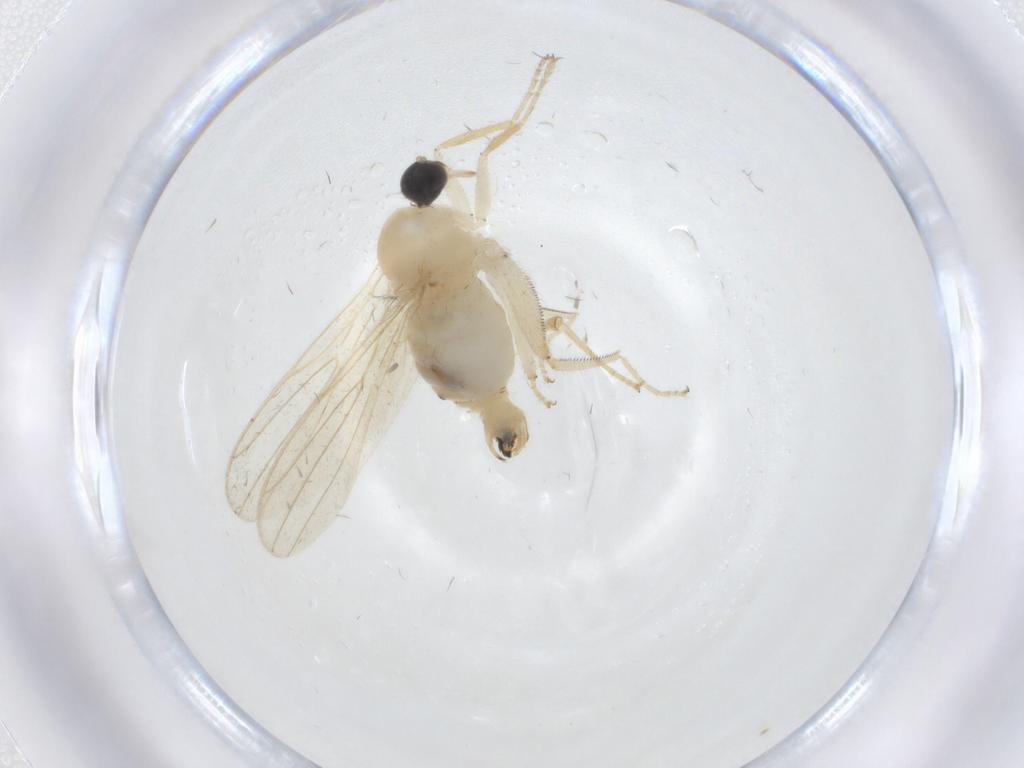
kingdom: Animalia
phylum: Arthropoda
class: Insecta
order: Diptera
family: Hybotidae
